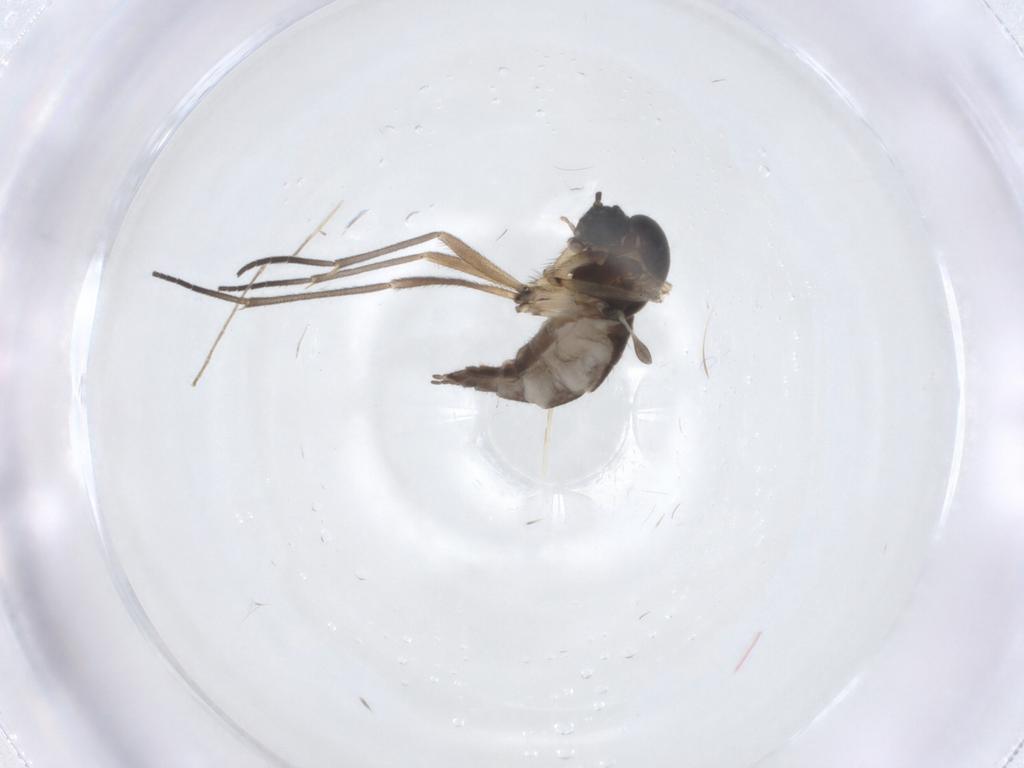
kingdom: Animalia
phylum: Arthropoda
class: Insecta
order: Diptera
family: Sciaridae
